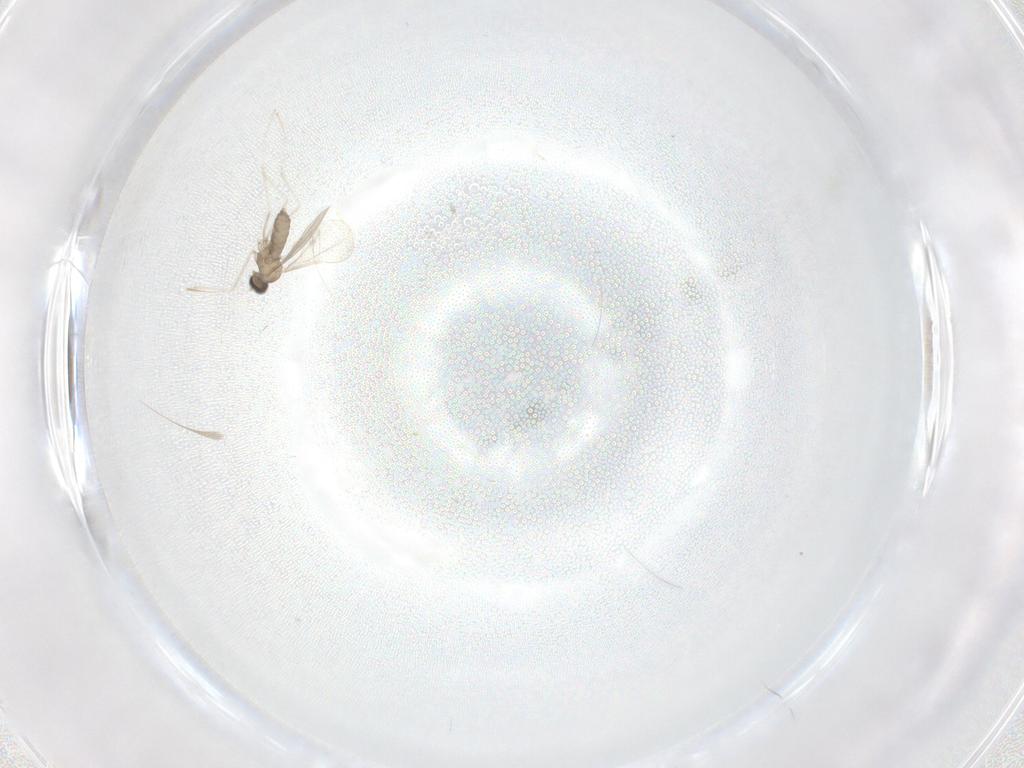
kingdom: Animalia
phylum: Arthropoda
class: Insecta
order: Diptera
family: Cecidomyiidae
